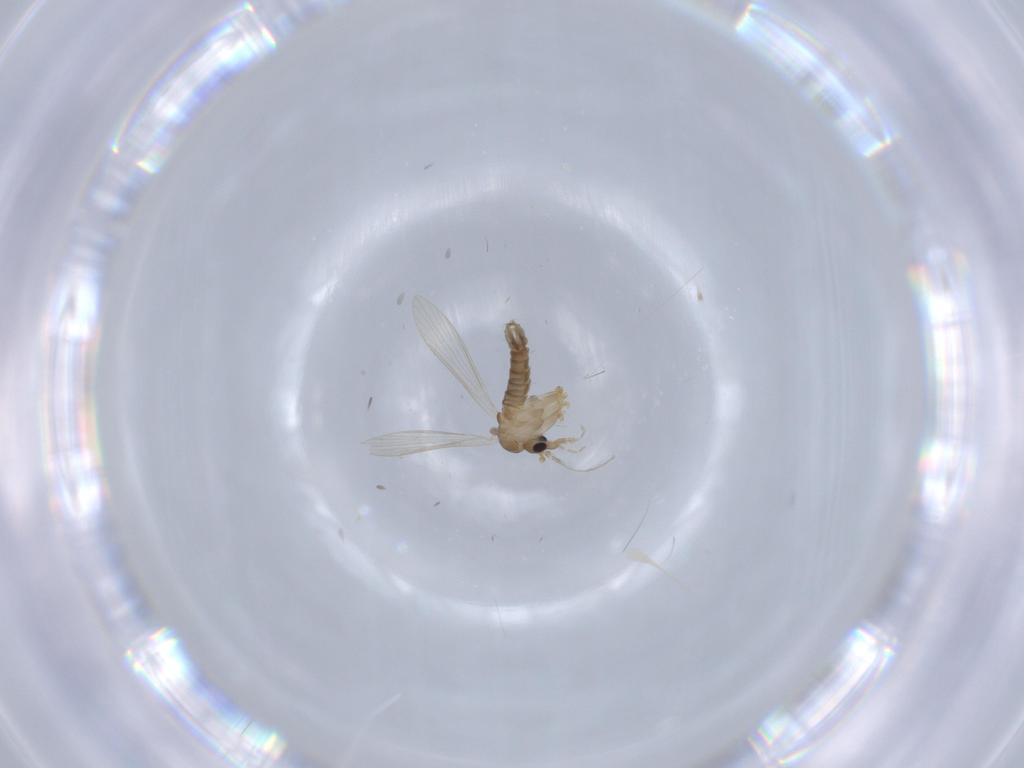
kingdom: Animalia
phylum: Arthropoda
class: Insecta
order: Diptera
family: Psychodidae
